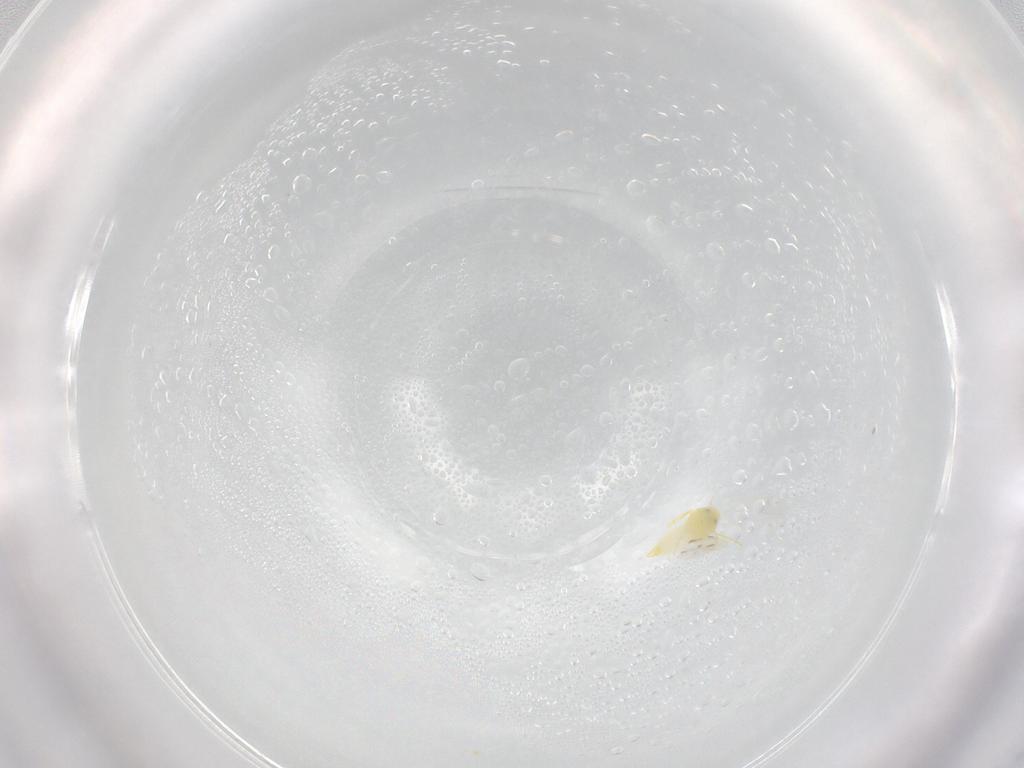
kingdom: Animalia
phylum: Arthropoda
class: Insecta
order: Hemiptera
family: Aleyrodidae
